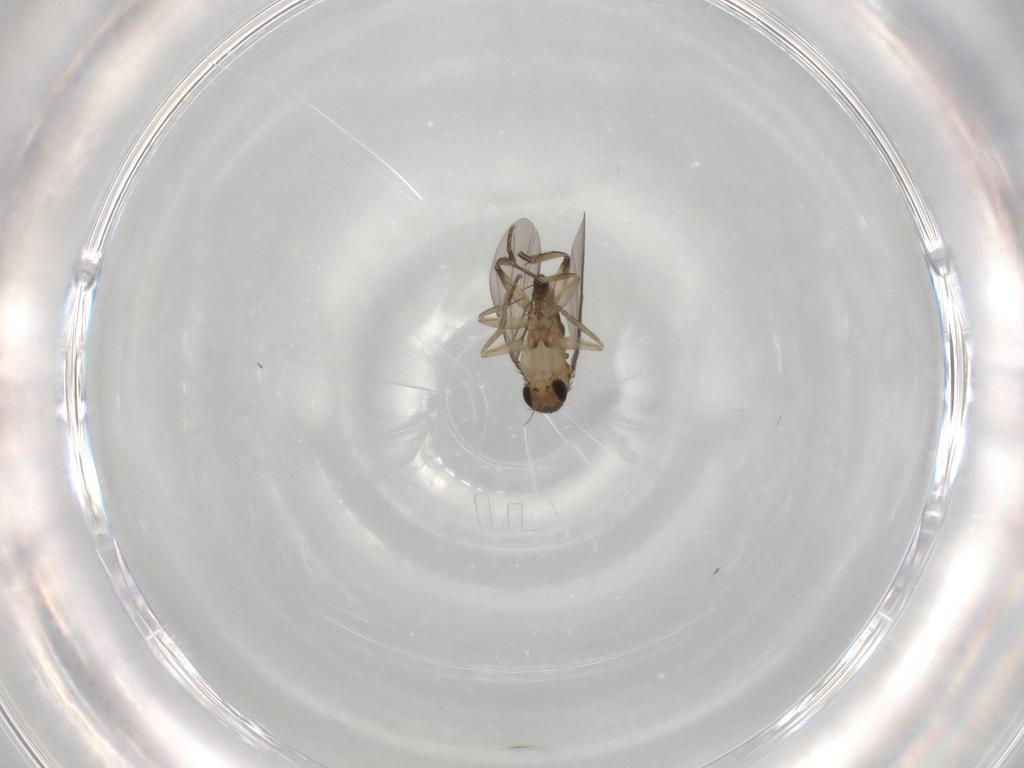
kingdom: Animalia
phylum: Arthropoda
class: Insecta
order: Diptera
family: Phoridae
